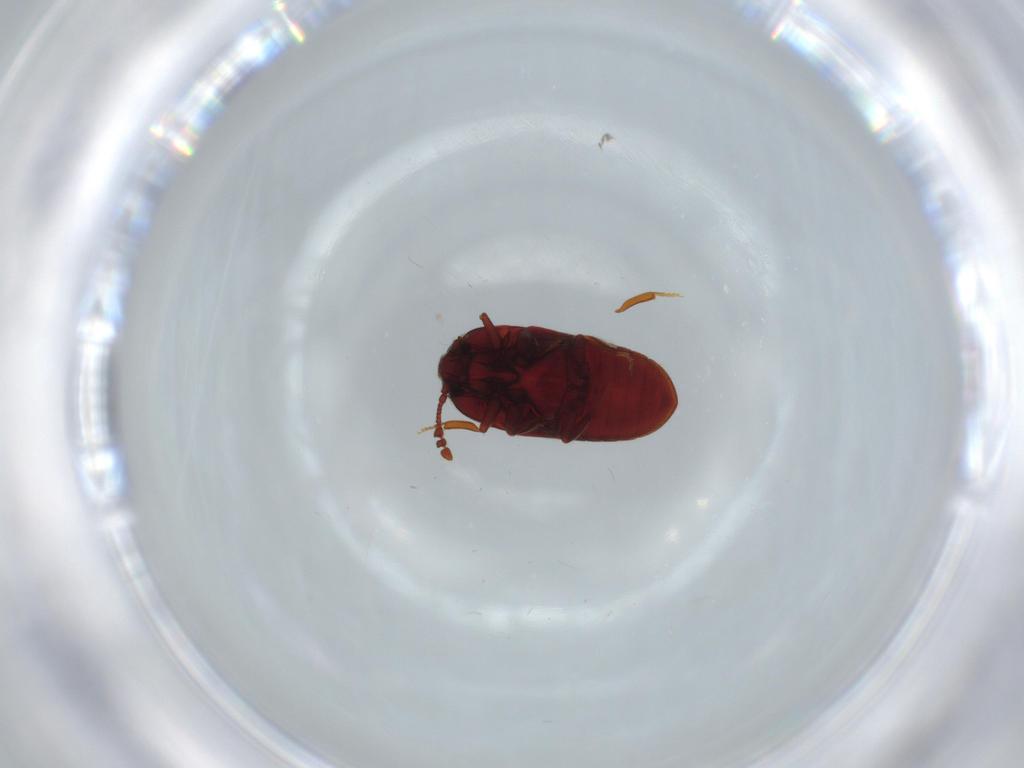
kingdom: Animalia
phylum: Arthropoda
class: Insecta
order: Coleoptera
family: Throscidae
